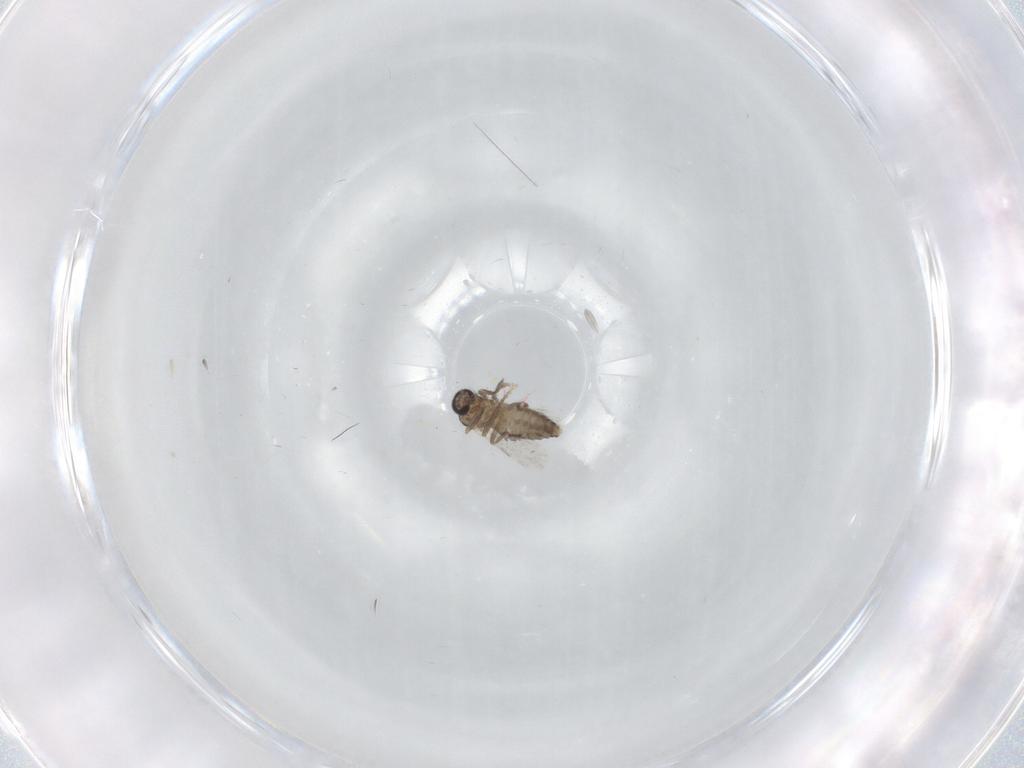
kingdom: Animalia
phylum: Arthropoda
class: Insecta
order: Diptera
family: Ceratopogonidae
